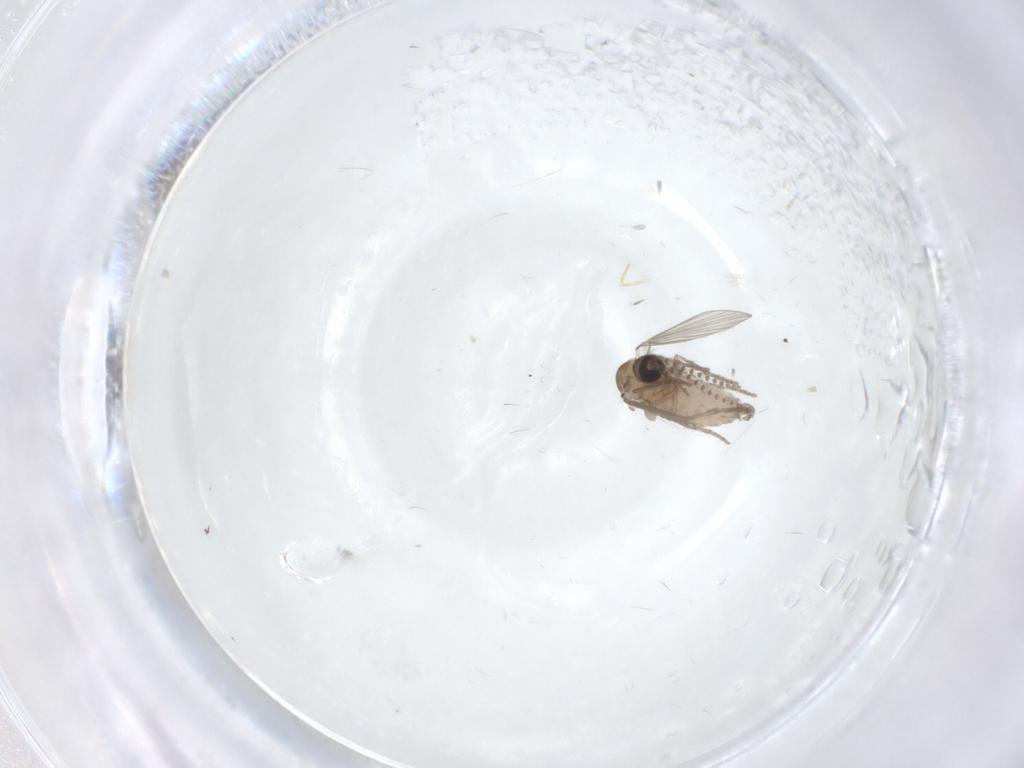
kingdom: Animalia
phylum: Arthropoda
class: Insecta
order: Diptera
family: Psychodidae
